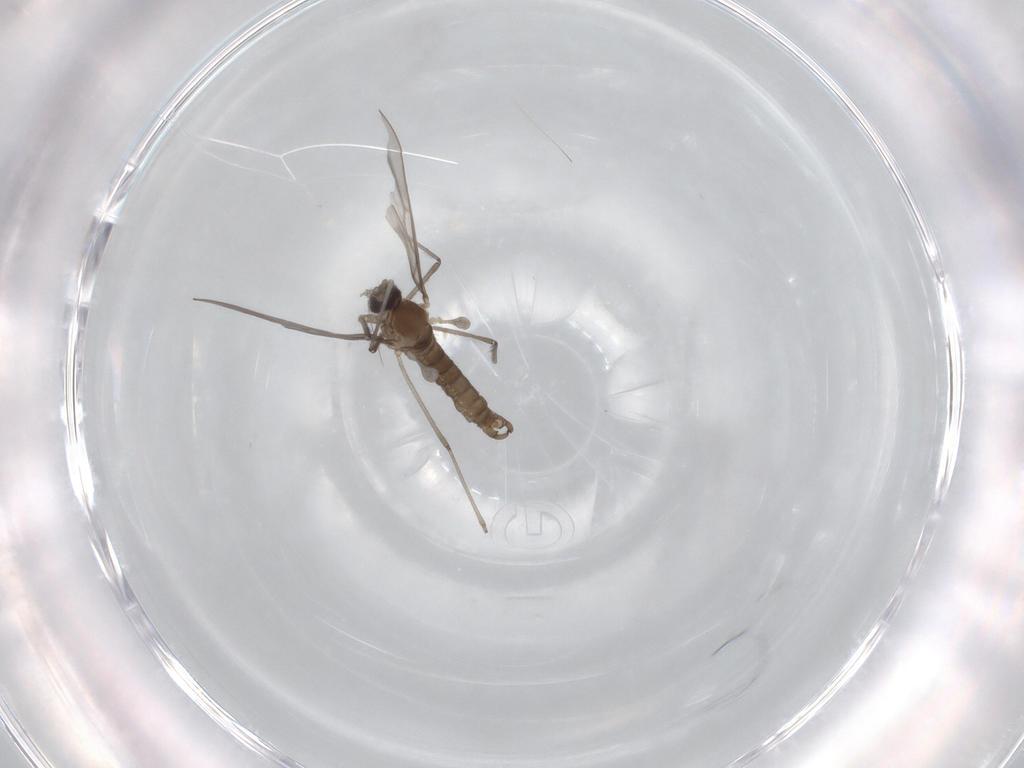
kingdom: Animalia
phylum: Arthropoda
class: Insecta
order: Diptera
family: Cecidomyiidae
